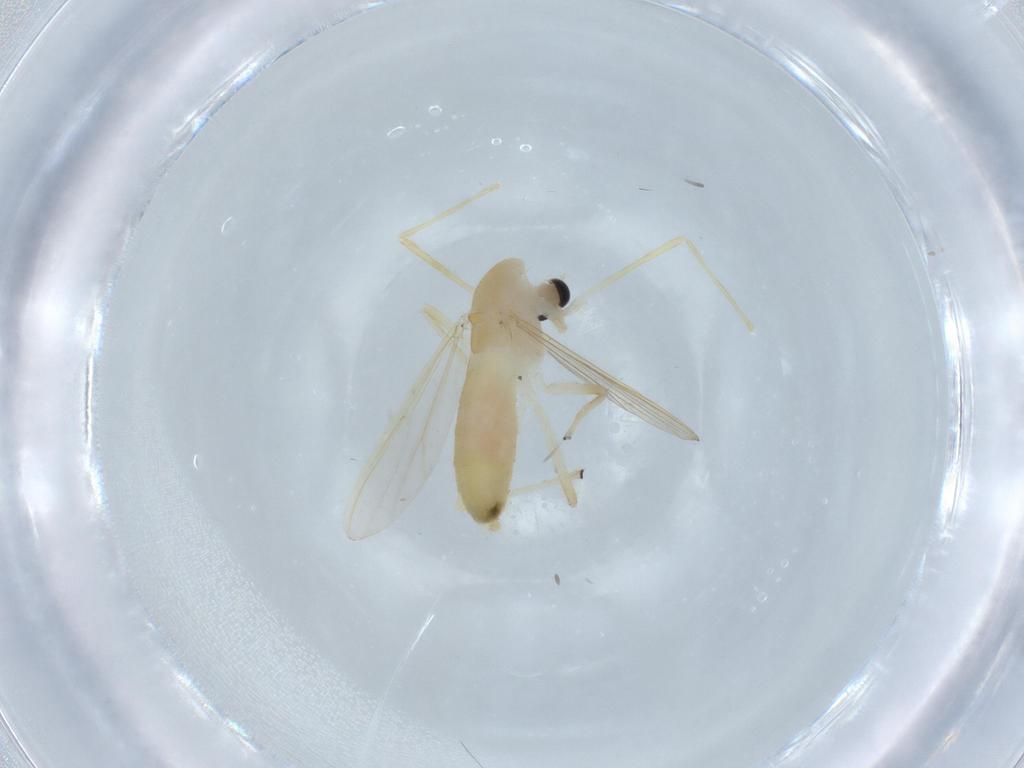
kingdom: Animalia
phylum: Arthropoda
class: Insecta
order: Diptera
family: Chironomidae
